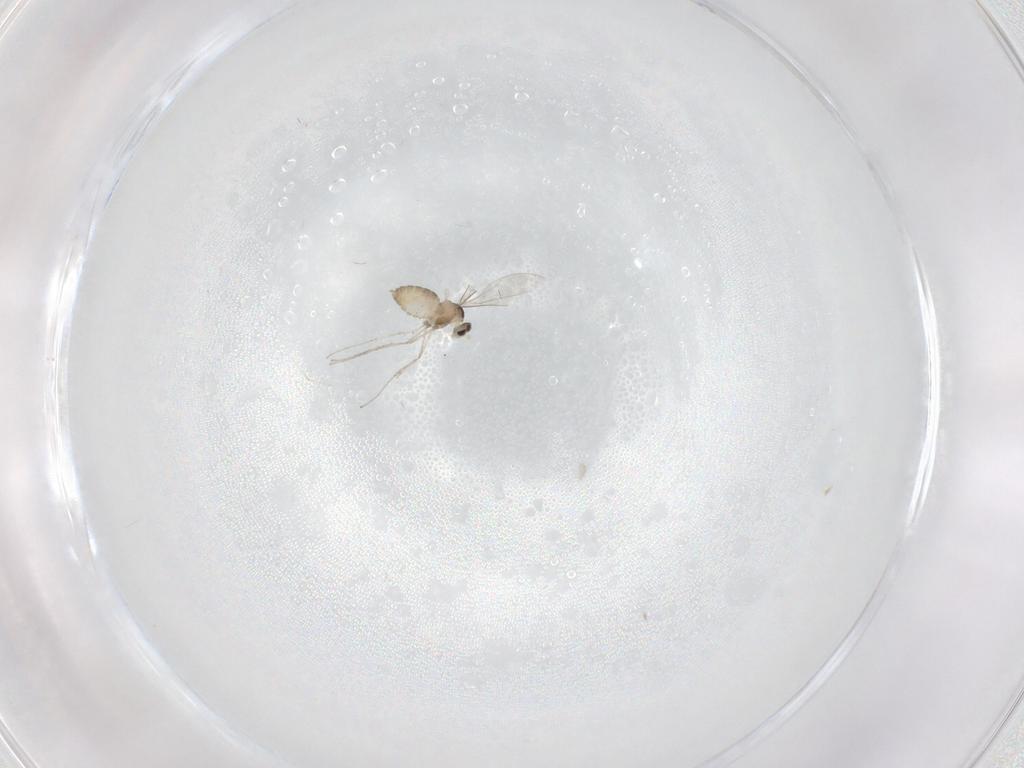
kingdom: Animalia
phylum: Arthropoda
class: Insecta
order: Diptera
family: Cecidomyiidae
